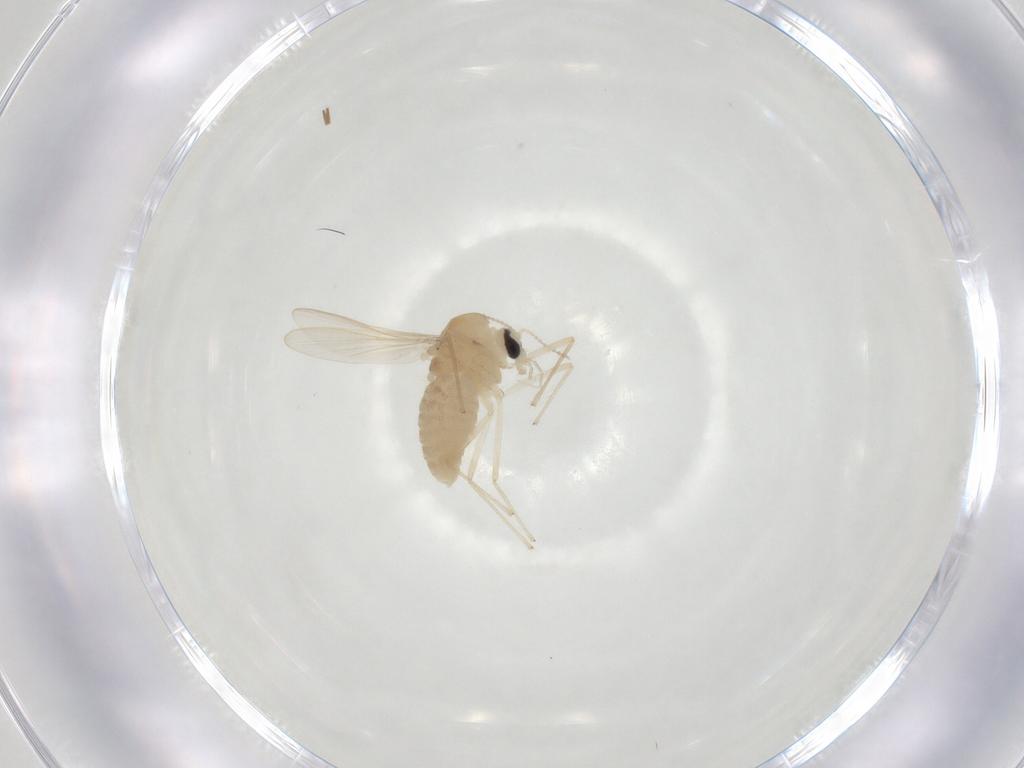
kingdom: Animalia
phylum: Arthropoda
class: Insecta
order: Diptera
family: Chironomidae
